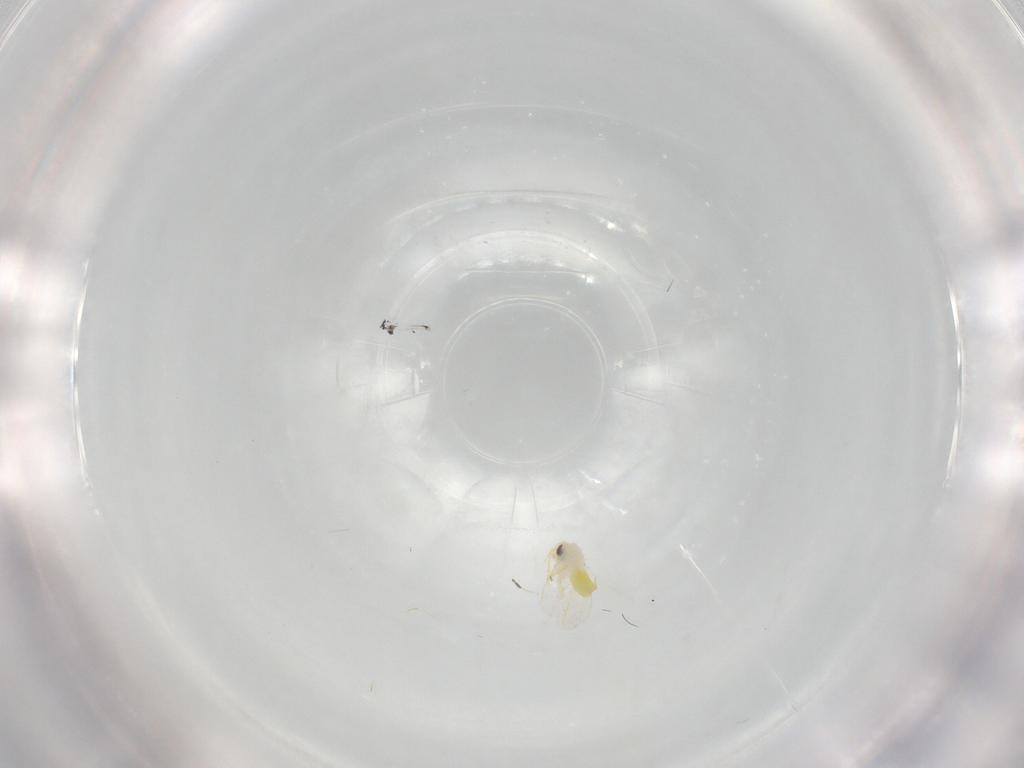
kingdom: Animalia
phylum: Arthropoda
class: Insecta
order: Hemiptera
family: Aleyrodidae
